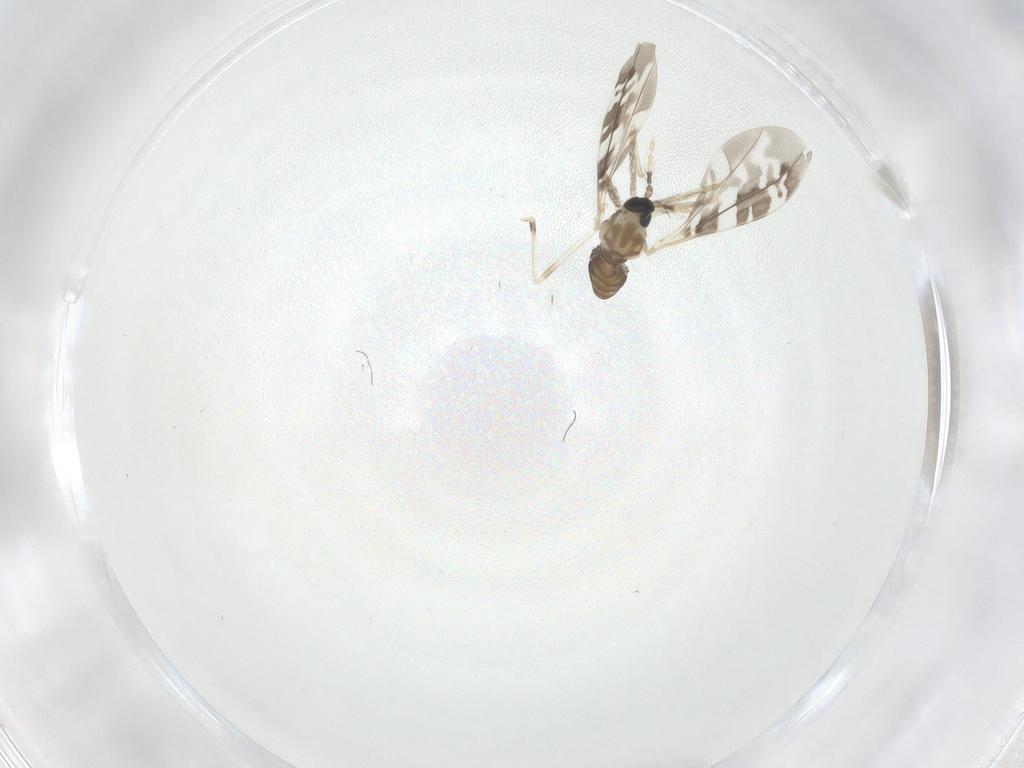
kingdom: Animalia
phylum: Arthropoda
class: Insecta
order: Diptera
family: Cecidomyiidae
